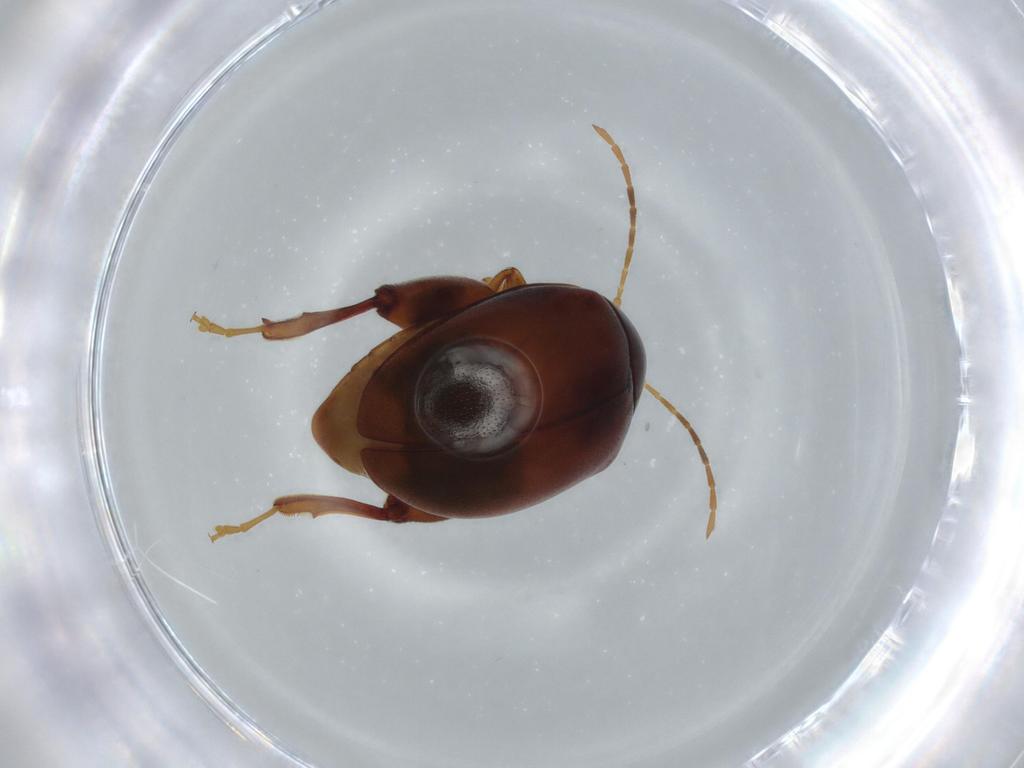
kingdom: Animalia
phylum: Arthropoda
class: Insecta
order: Coleoptera
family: Chrysomelidae
